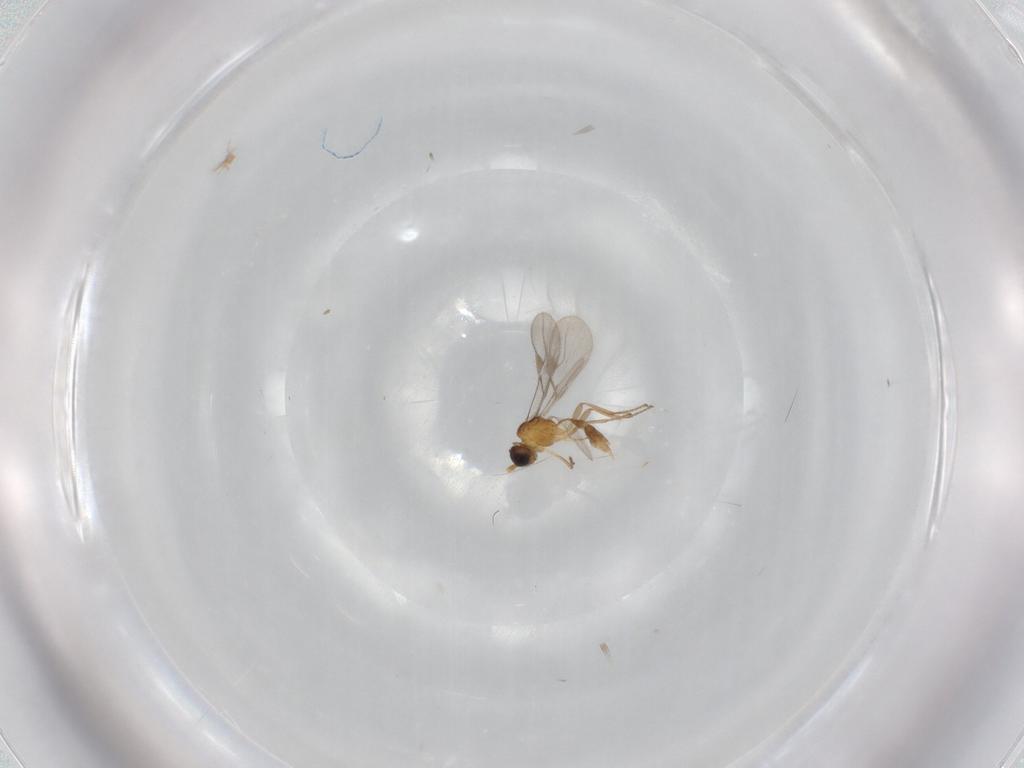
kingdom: Animalia
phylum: Arthropoda
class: Insecta
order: Hymenoptera
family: Braconidae
